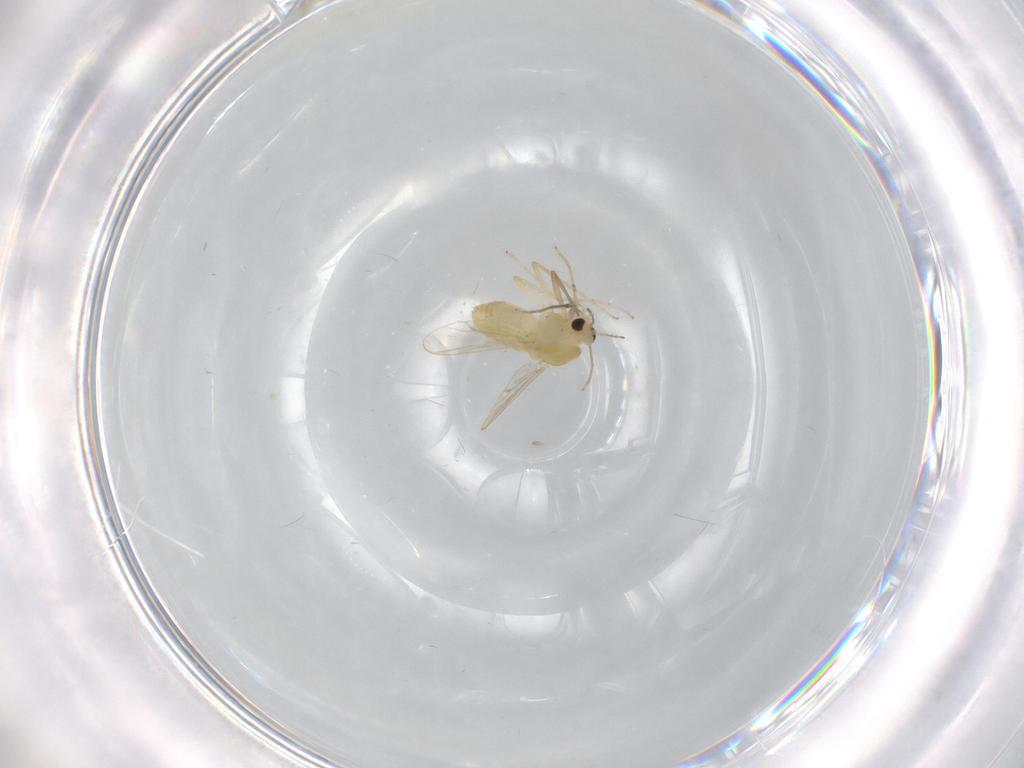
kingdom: Animalia
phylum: Arthropoda
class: Insecta
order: Diptera
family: Chironomidae
